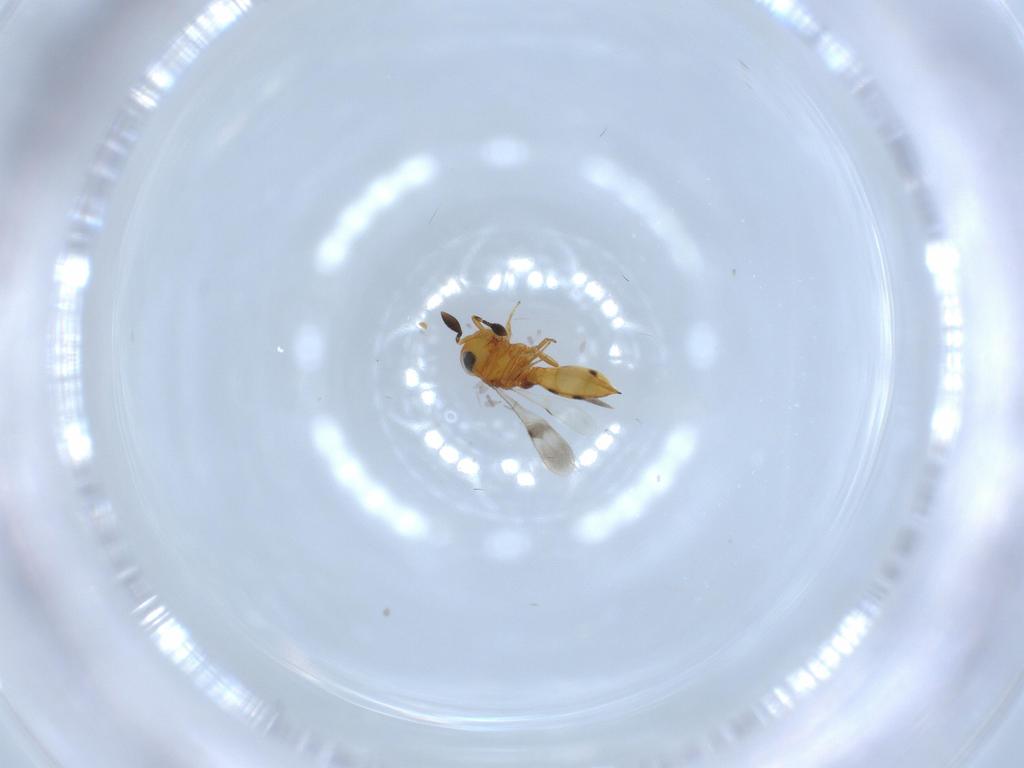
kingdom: Animalia
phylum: Arthropoda
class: Insecta
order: Hymenoptera
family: Scelionidae
